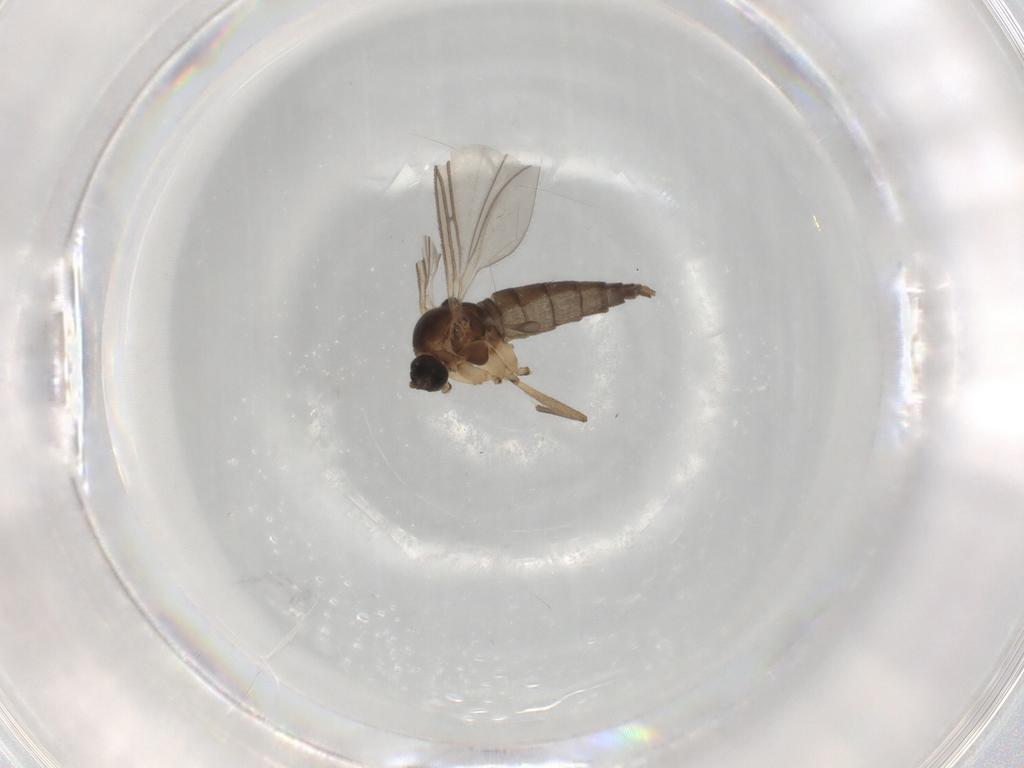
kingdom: Animalia
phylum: Arthropoda
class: Insecta
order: Diptera
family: Sciaridae
